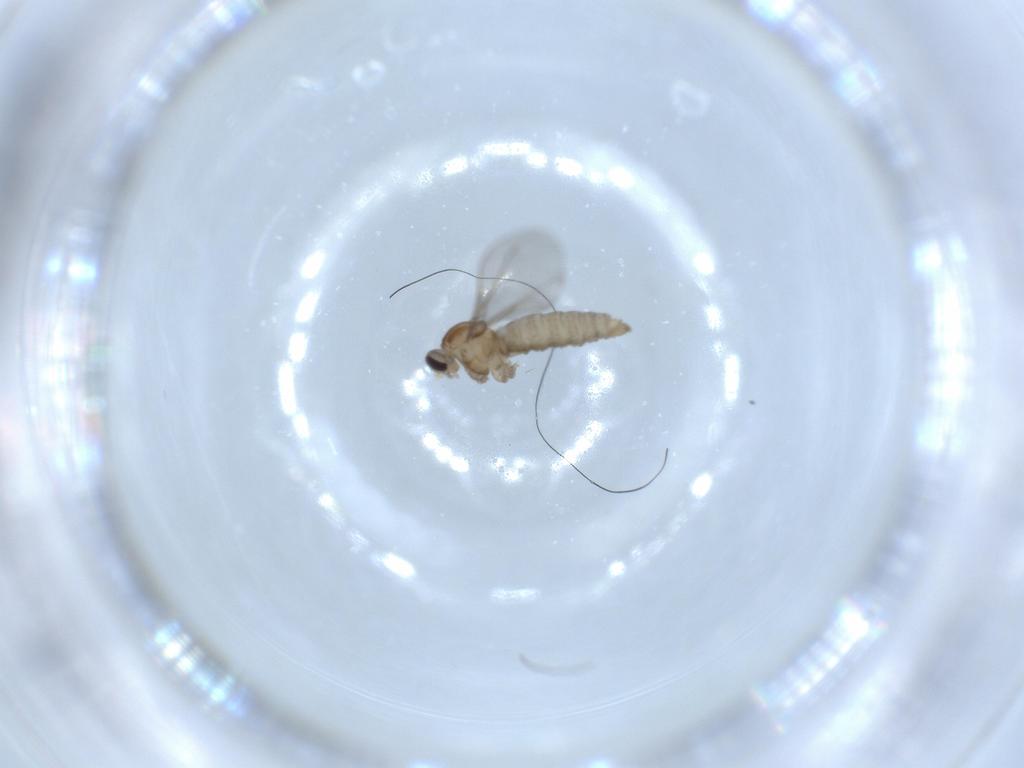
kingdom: Animalia
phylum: Arthropoda
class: Insecta
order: Diptera
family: Cecidomyiidae
